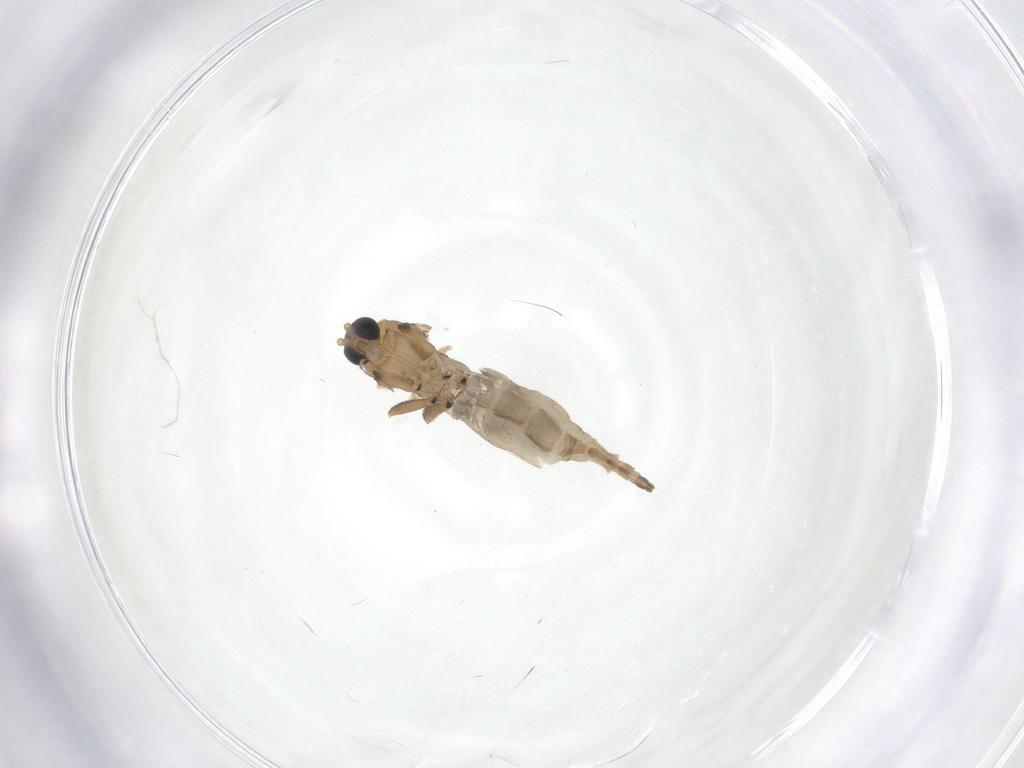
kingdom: Animalia
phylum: Arthropoda
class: Insecta
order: Diptera
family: Sciaridae
